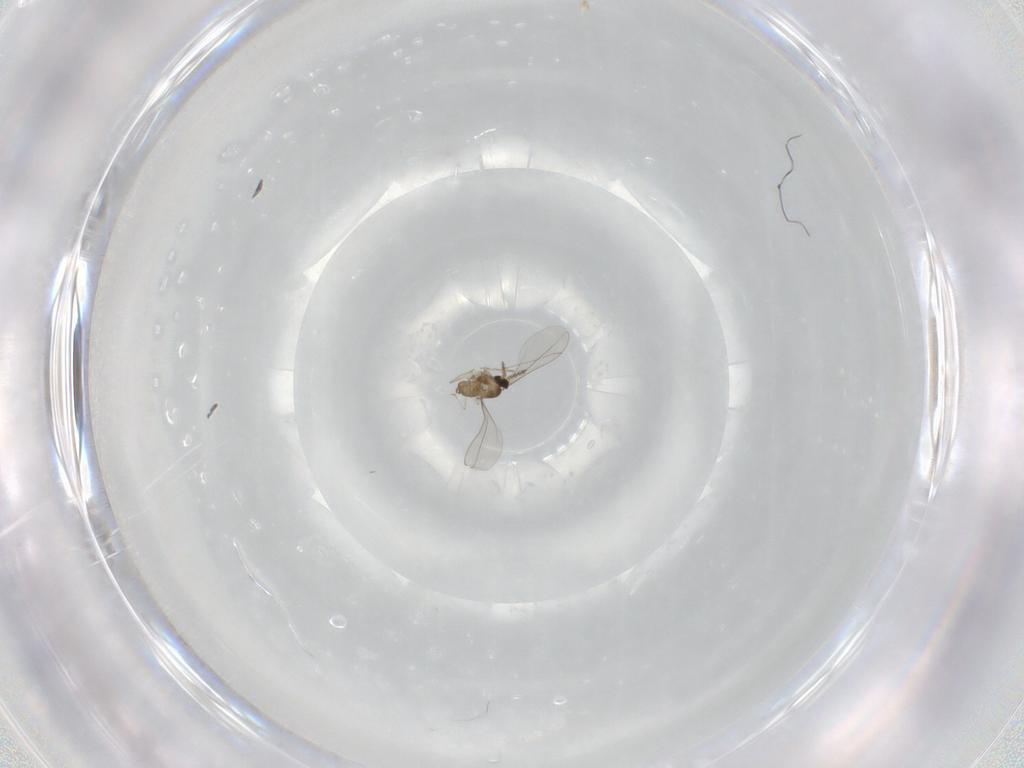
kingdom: Animalia
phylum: Arthropoda
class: Insecta
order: Diptera
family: Cecidomyiidae
